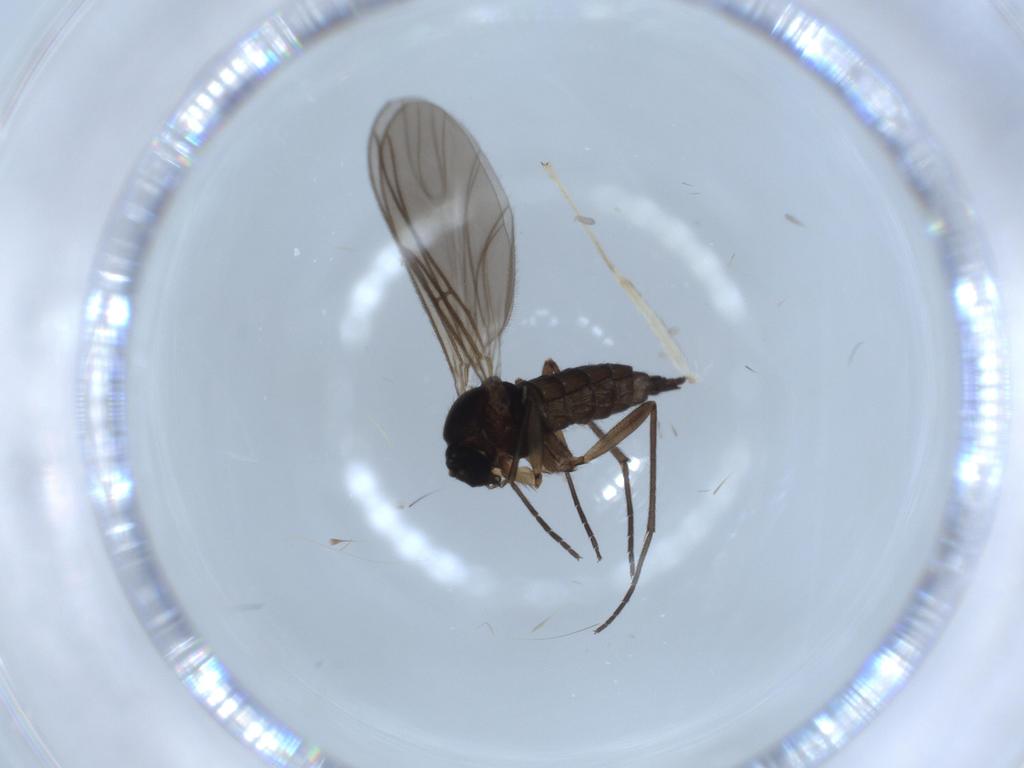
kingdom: Animalia
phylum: Arthropoda
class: Insecta
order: Diptera
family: Sciaridae
